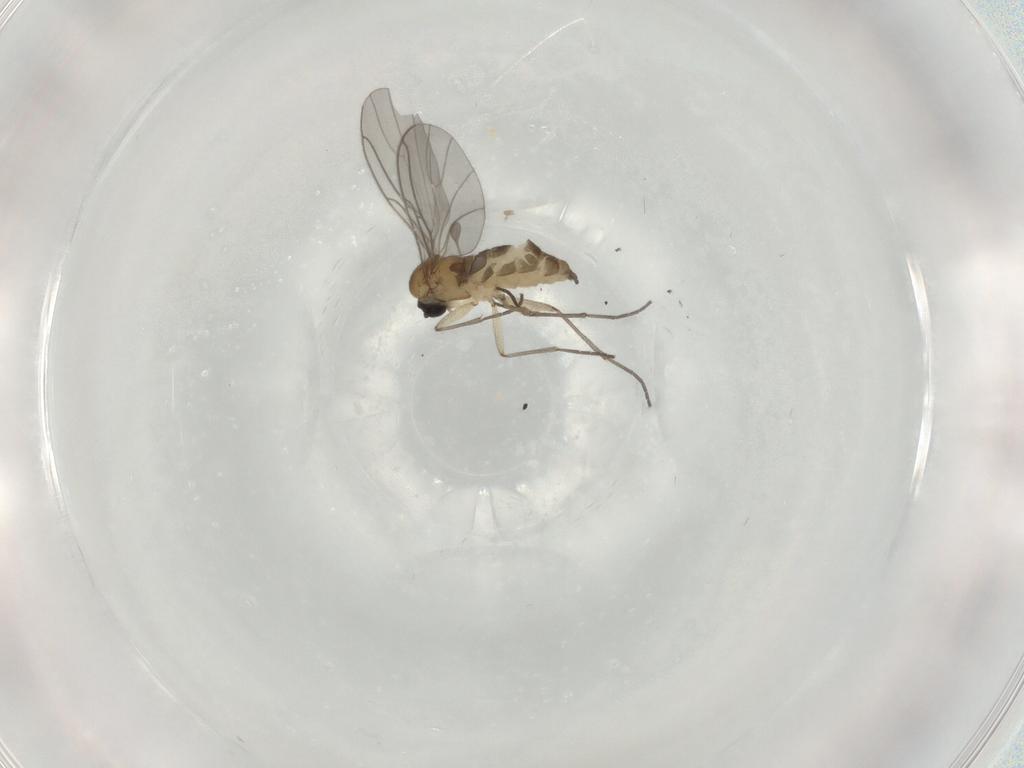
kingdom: Animalia
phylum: Arthropoda
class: Insecta
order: Diptera
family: Sciaridae
